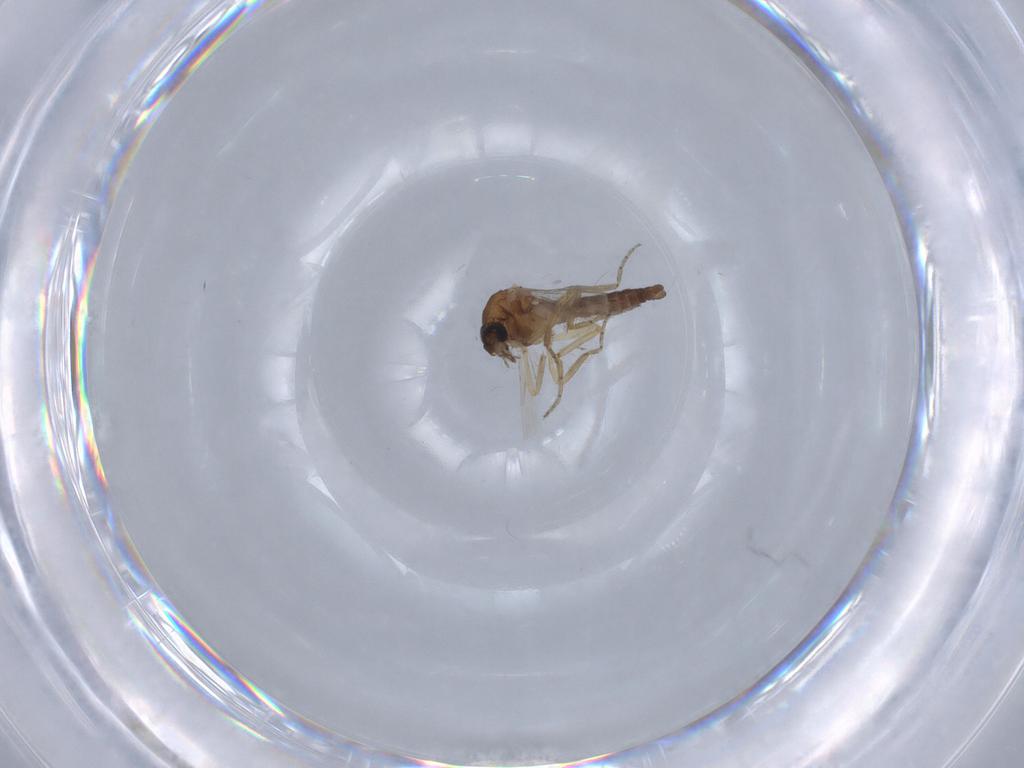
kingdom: Animalia
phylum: Arthropoda
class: Insecta
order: Diptera
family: Ceratopogonidae
